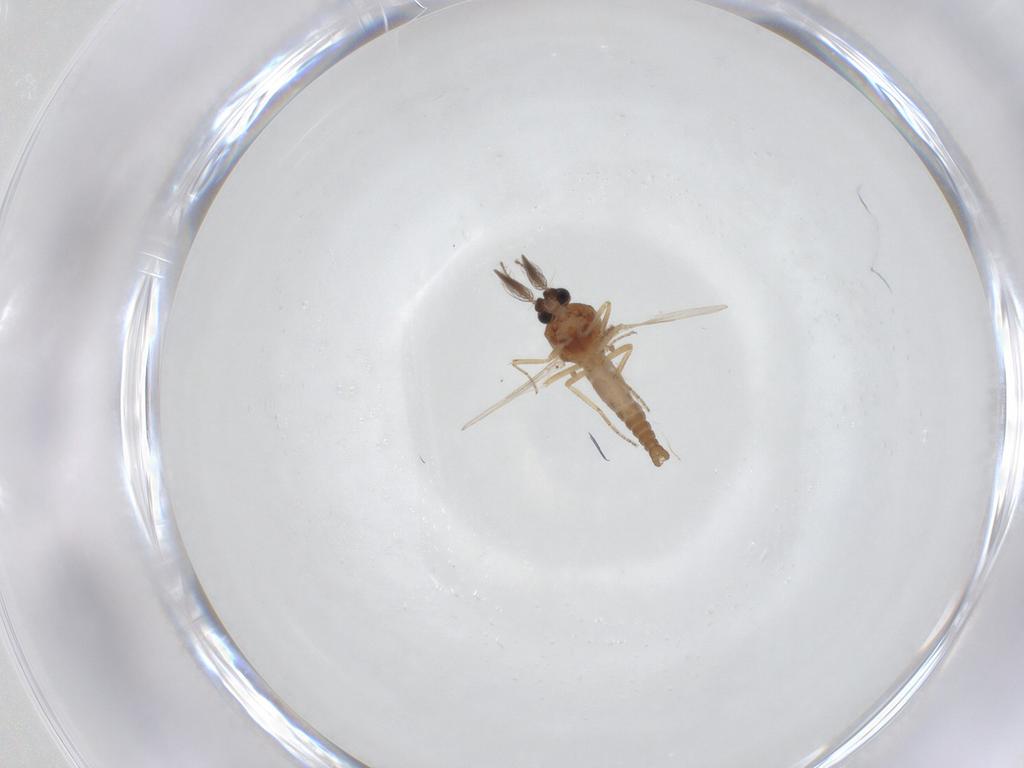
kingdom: Animalia
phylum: Arthropoda
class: Insecta
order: Diptera
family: Ceratopogonidae
